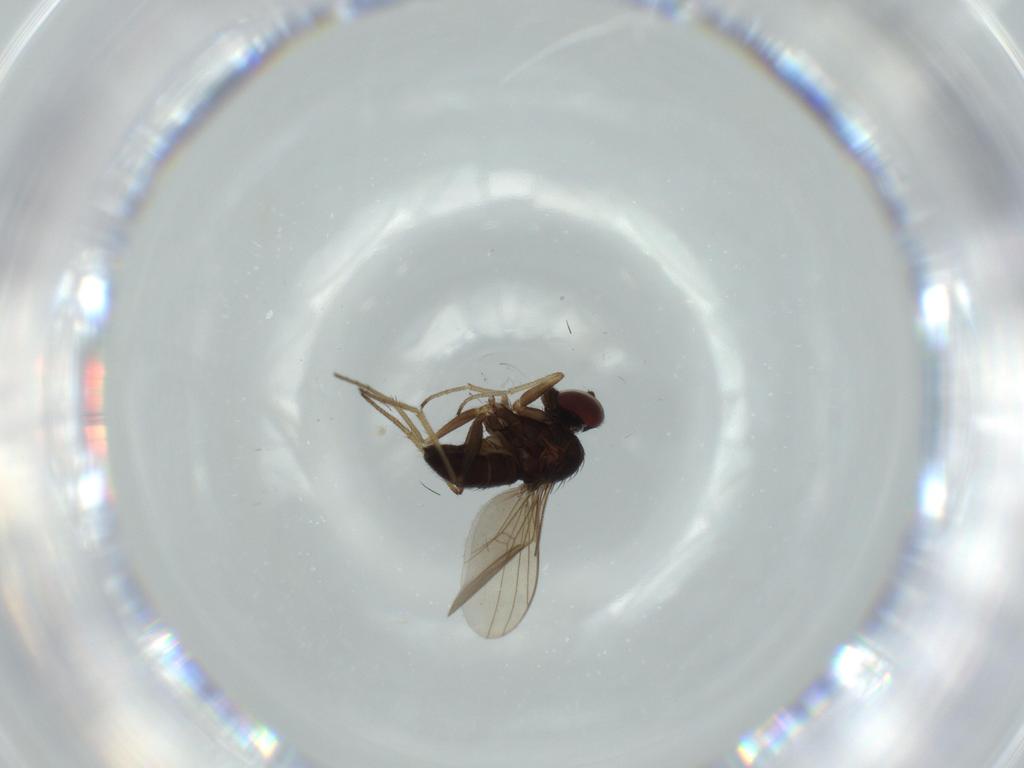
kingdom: Animalia
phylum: Arthropoda
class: Insecta
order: Diptera
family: Dolichopodidae
